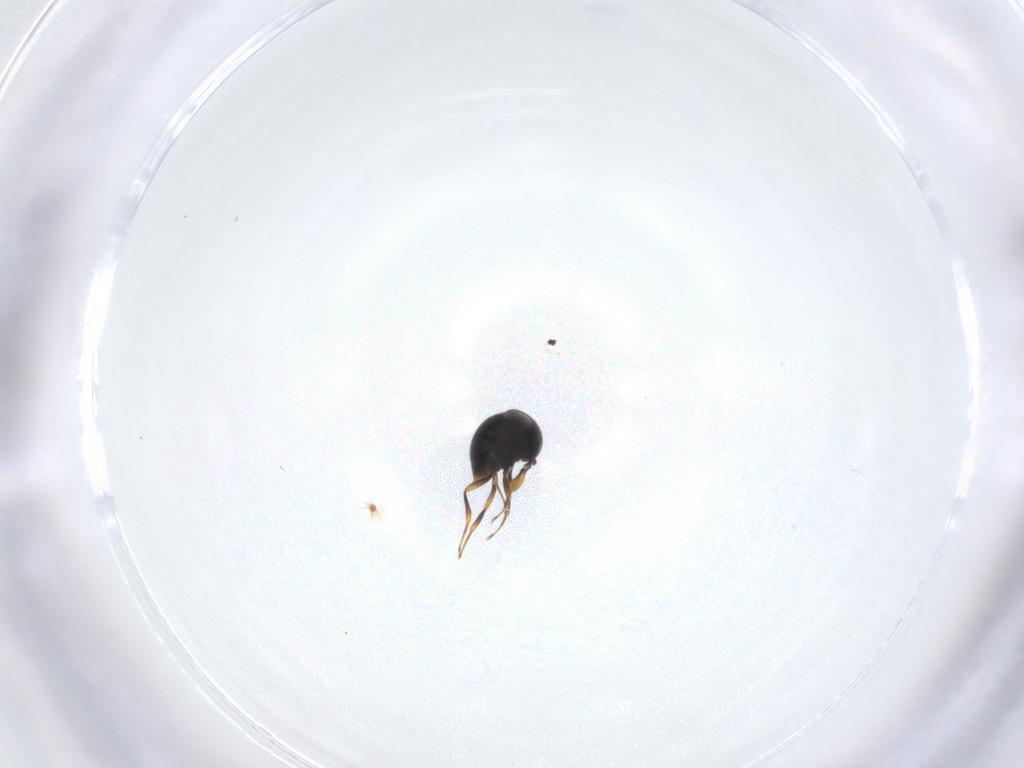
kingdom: Animalia
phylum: Arthropoda
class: Insecta
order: Hymenoptera
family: Scelionidae
